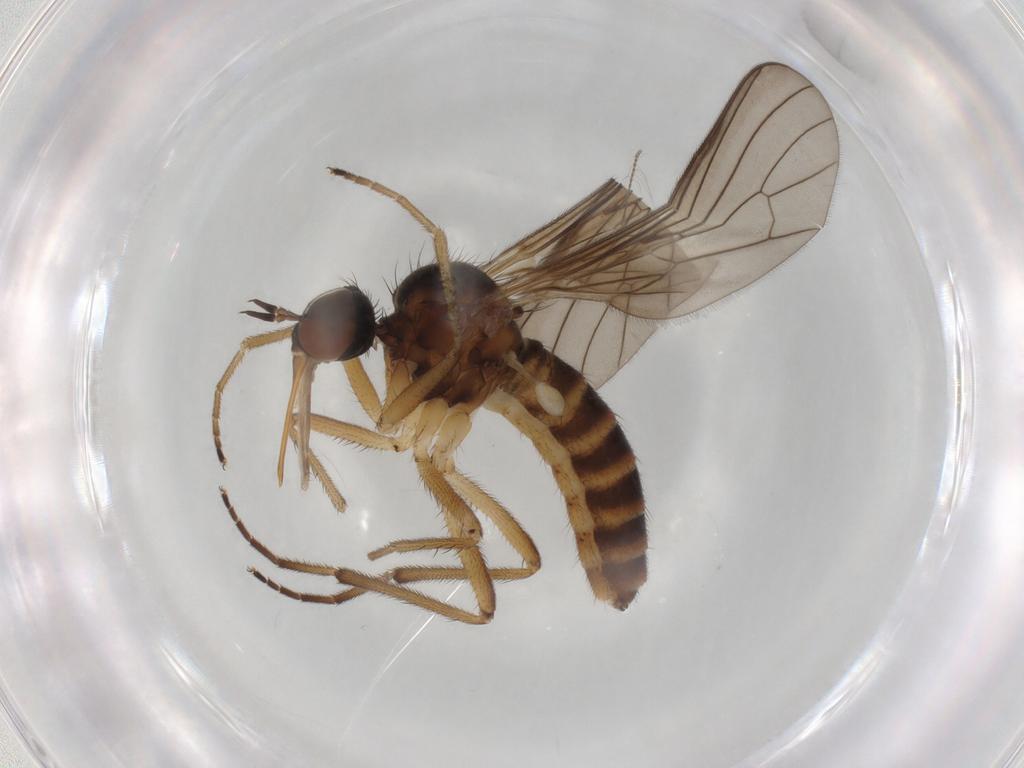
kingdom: Animalia
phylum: Arthropoda
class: Insecta
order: Diptera
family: Empididae
